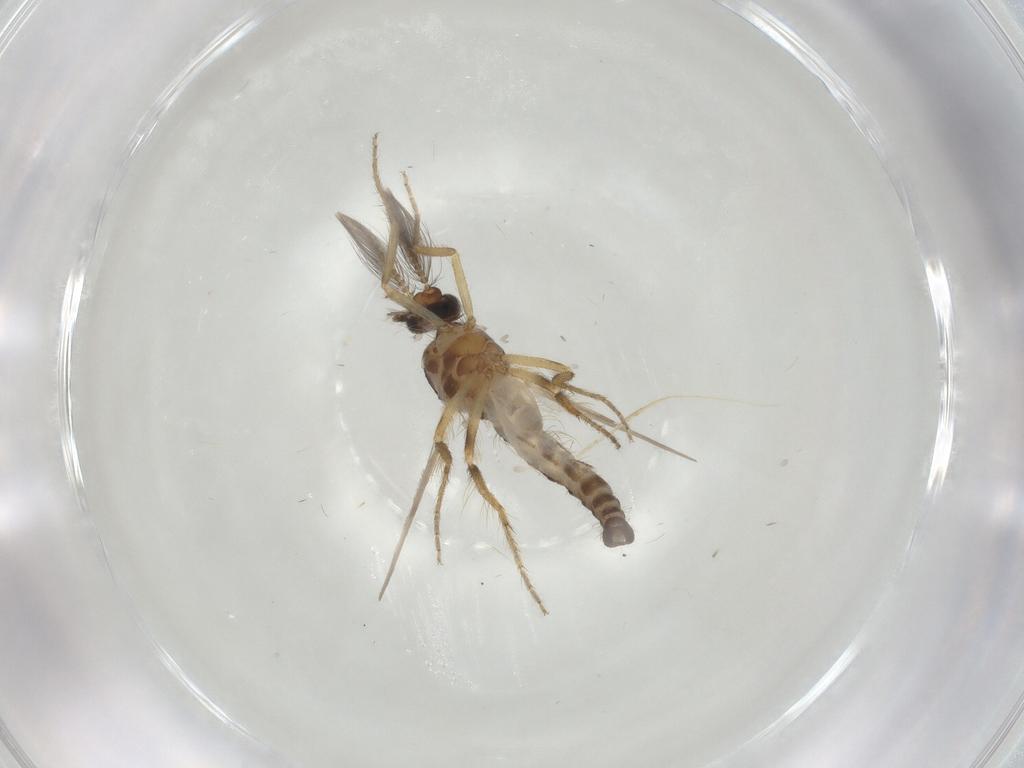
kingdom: Animalia
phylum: Arthropoda
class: Insecta
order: Diptera
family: Ceratopogonidae
